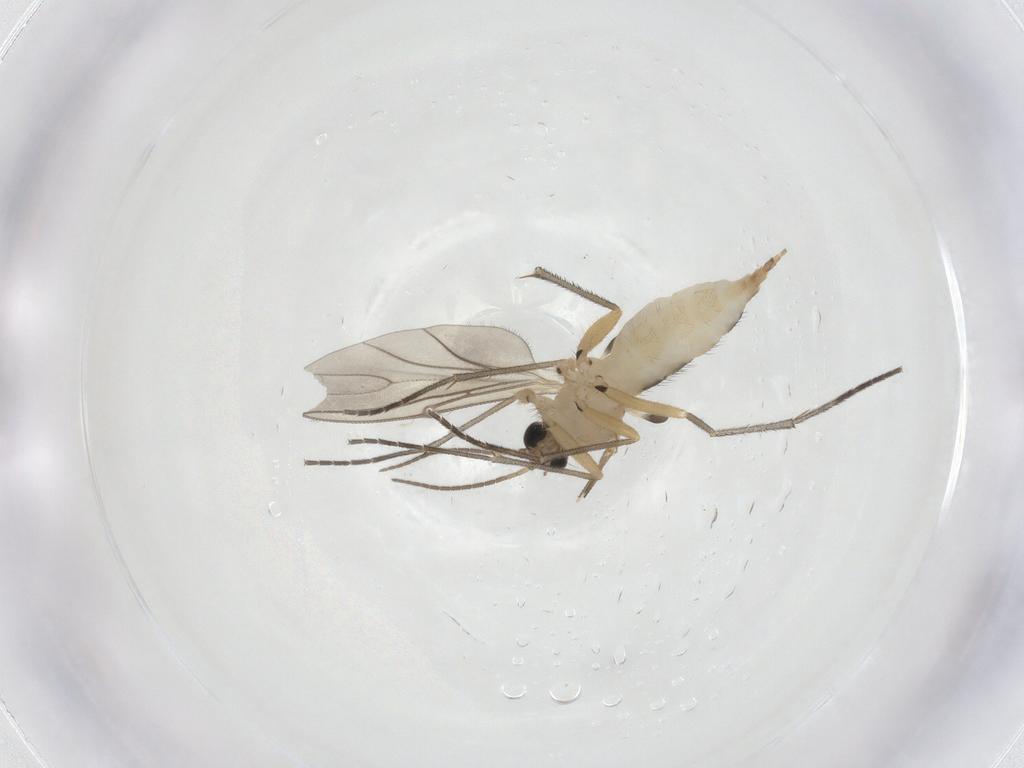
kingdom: Animalia
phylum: Arthropoda
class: Insecta
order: Diptera
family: Sciaridae
